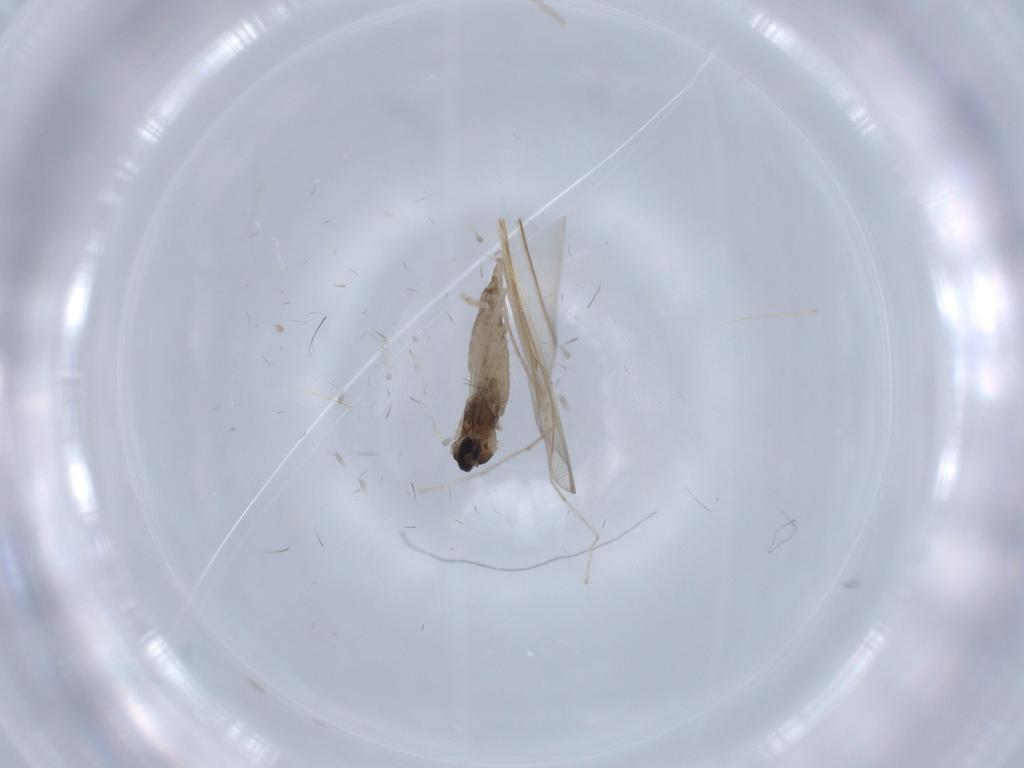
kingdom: Animalia
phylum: Arthropoda
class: Insecta
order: Diptera
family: Cecidomyiidae
